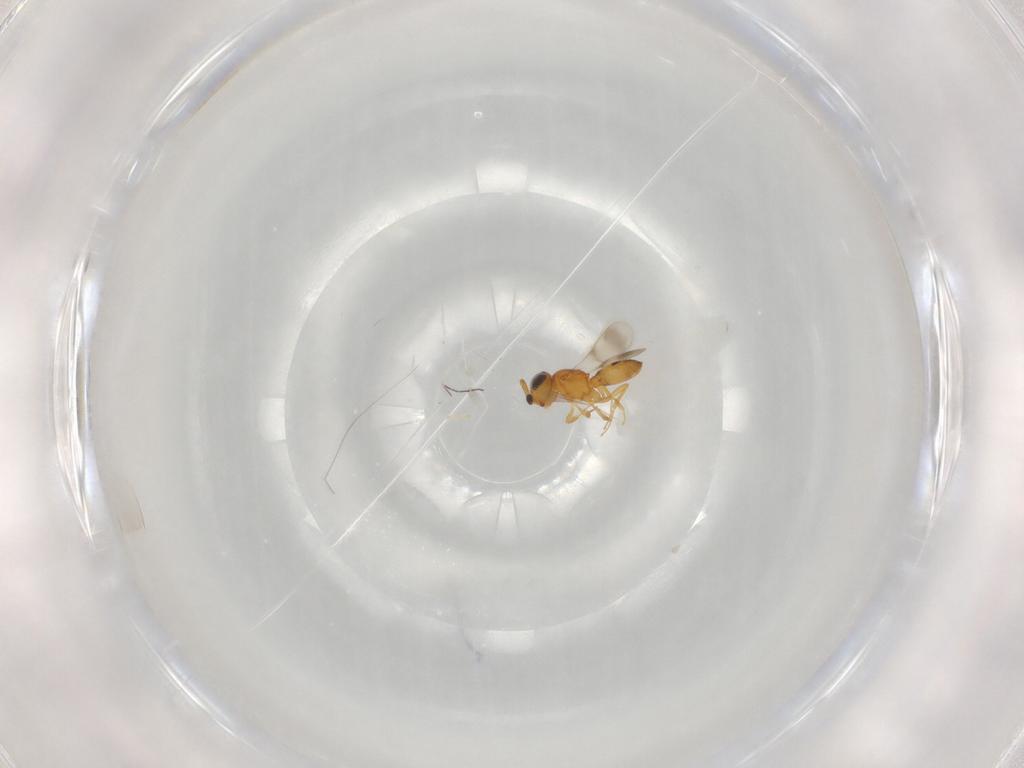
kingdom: Animalia
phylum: Arthropoda
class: Insecta
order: Hymenoptera
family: Scelionidae
